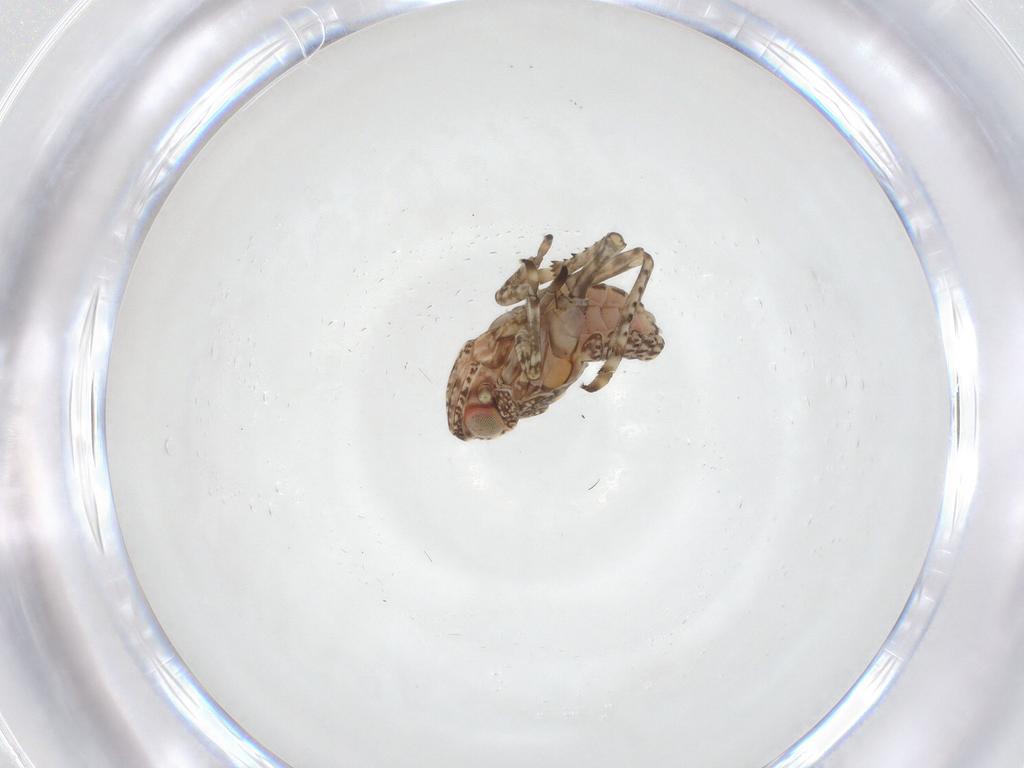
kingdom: Animalia
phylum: Arthropoda
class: Insecta
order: Hemiptera
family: Tropiduchidae
